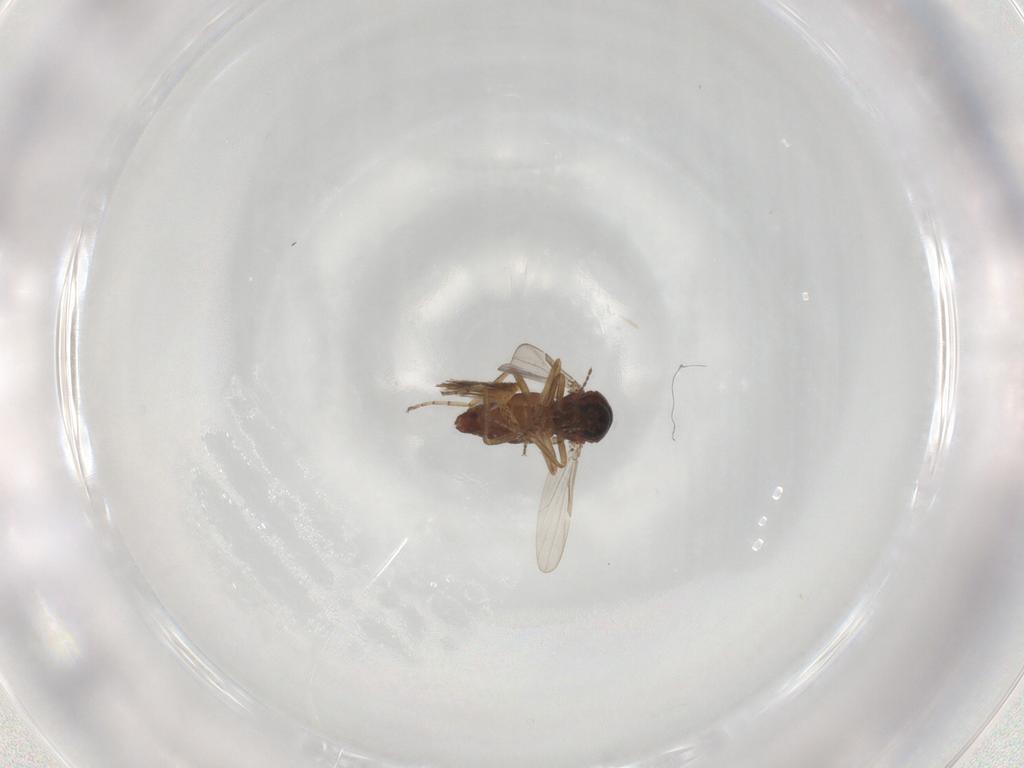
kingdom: Animalia
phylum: Arthropoda
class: Insecta
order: Diptera
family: Ceratopogonidae
